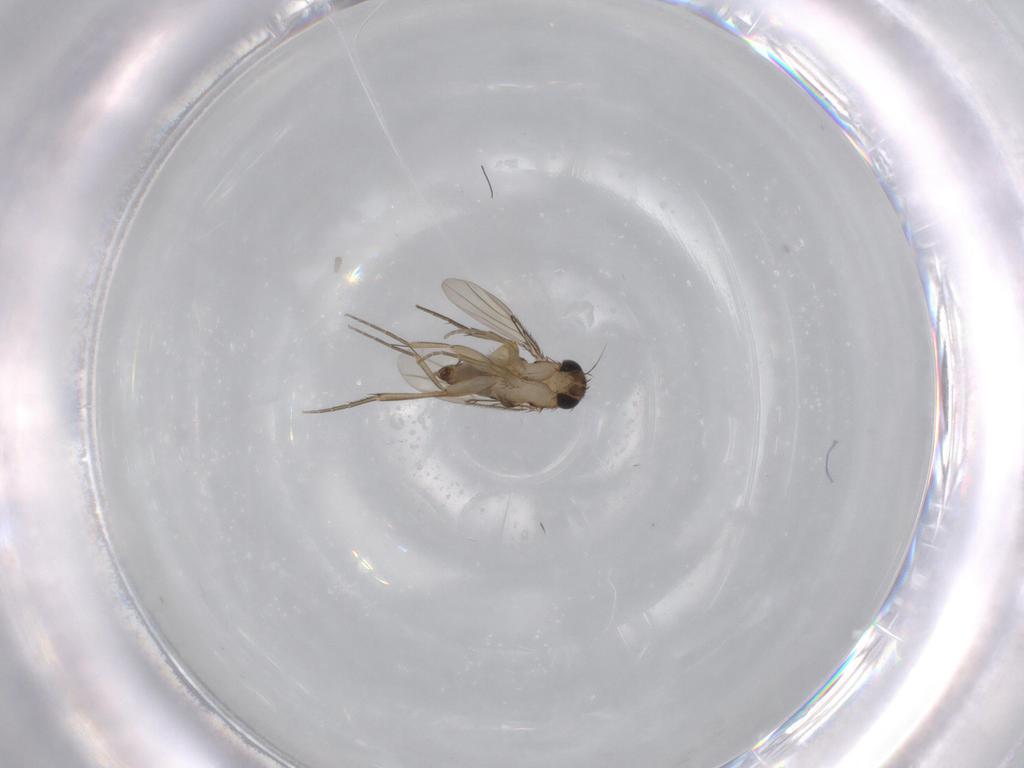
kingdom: Animalia
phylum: Arthropoda
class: Insecta
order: Diptera
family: Phoridae
